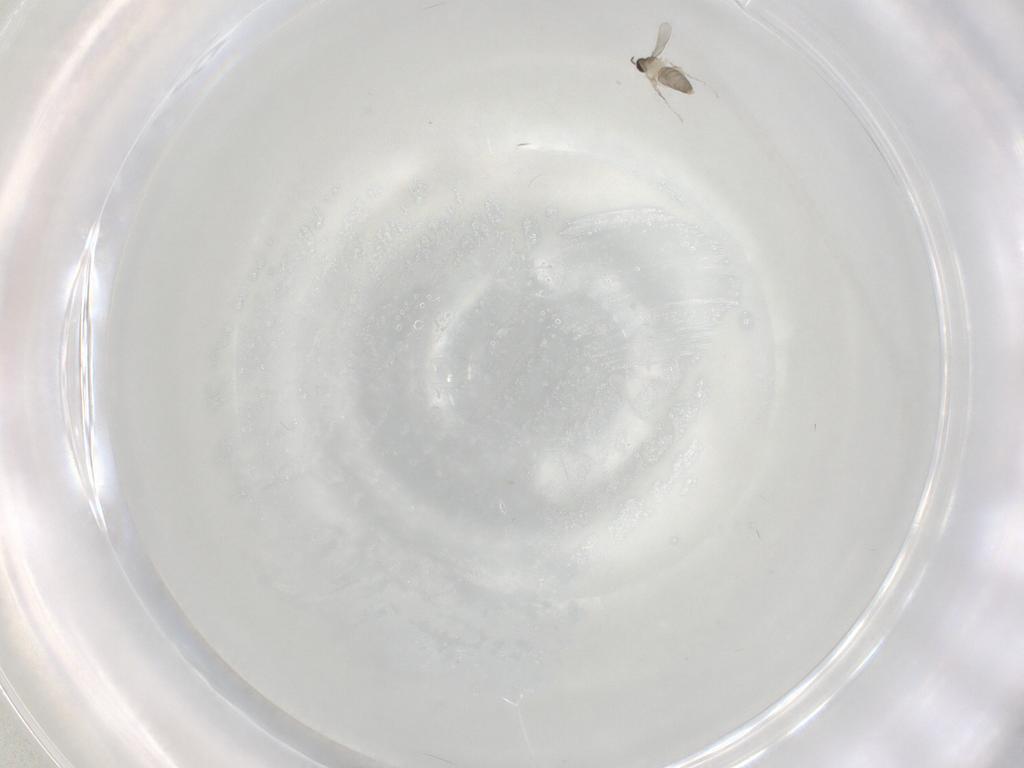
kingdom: Animalia
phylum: Arthropoda
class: Insecta
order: Diptera
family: Cecidomyiidae
